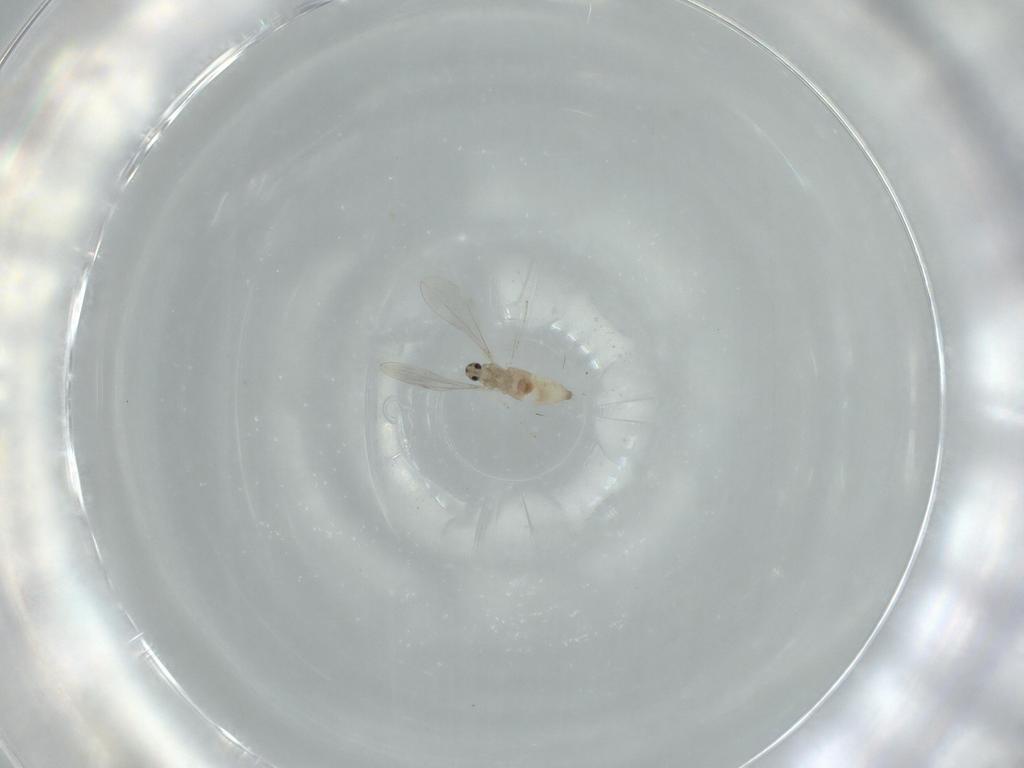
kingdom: Animalia
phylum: Arthropoda
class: Insecta
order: Diptera
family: Cecidomyiidae
